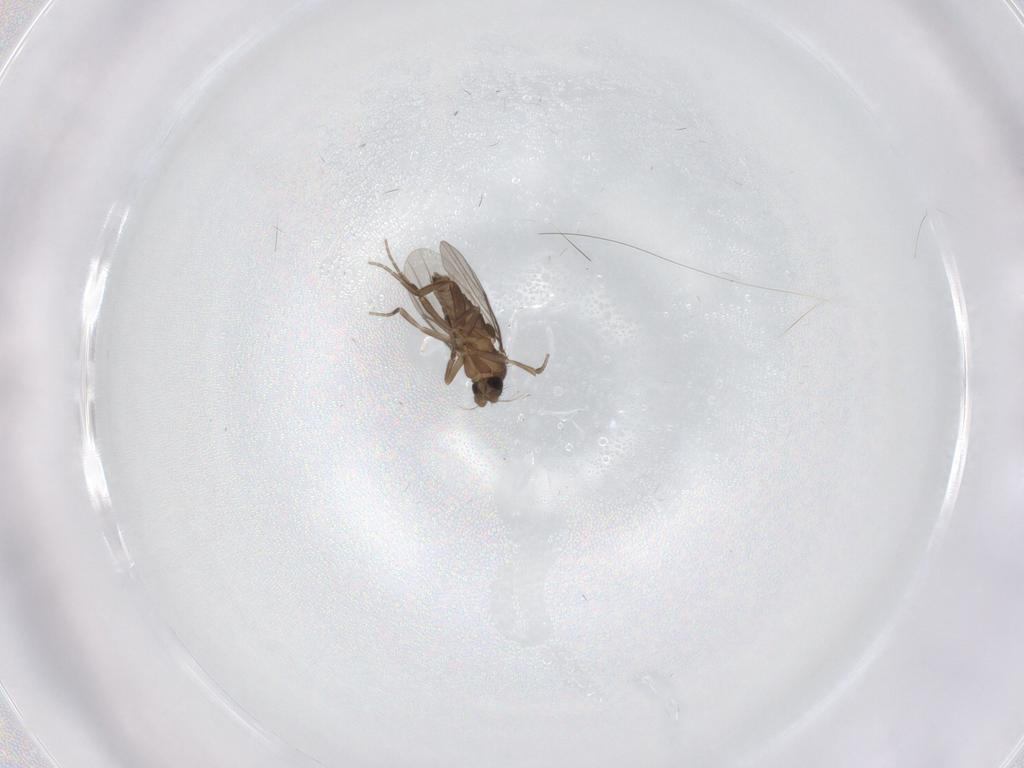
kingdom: Animalia
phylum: Arthropoda
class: Insecta
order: Diptera
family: Phoridae
